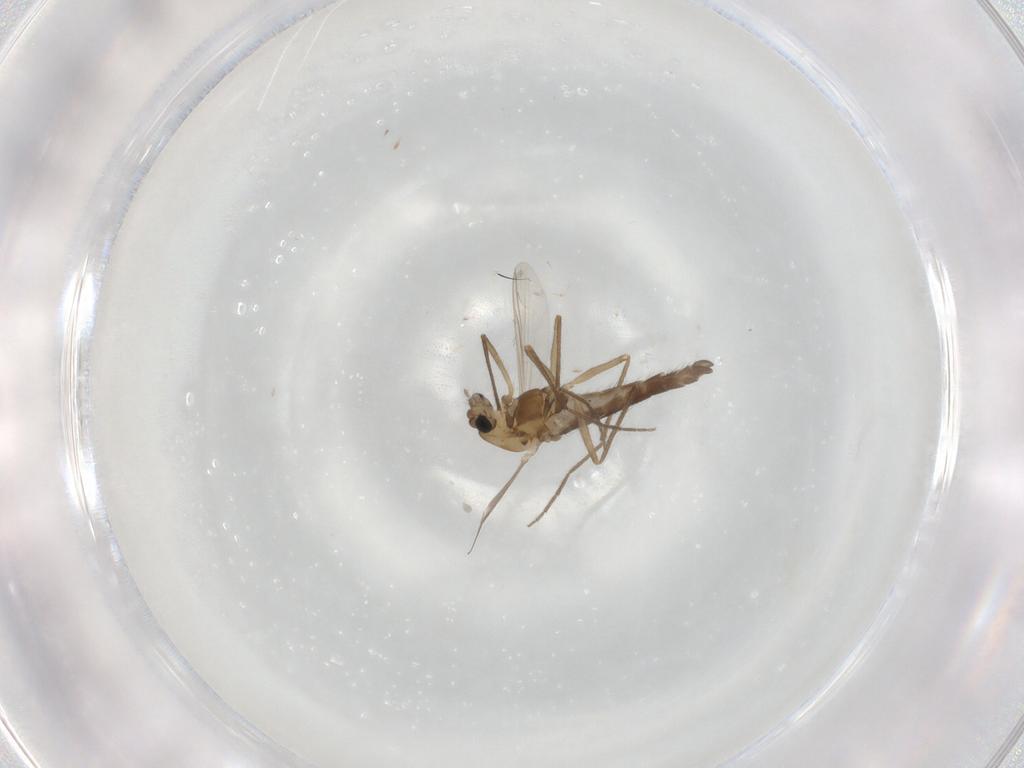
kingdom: Animalia
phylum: Arthropoda
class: Insecta
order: Diptera
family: Chironomidae
